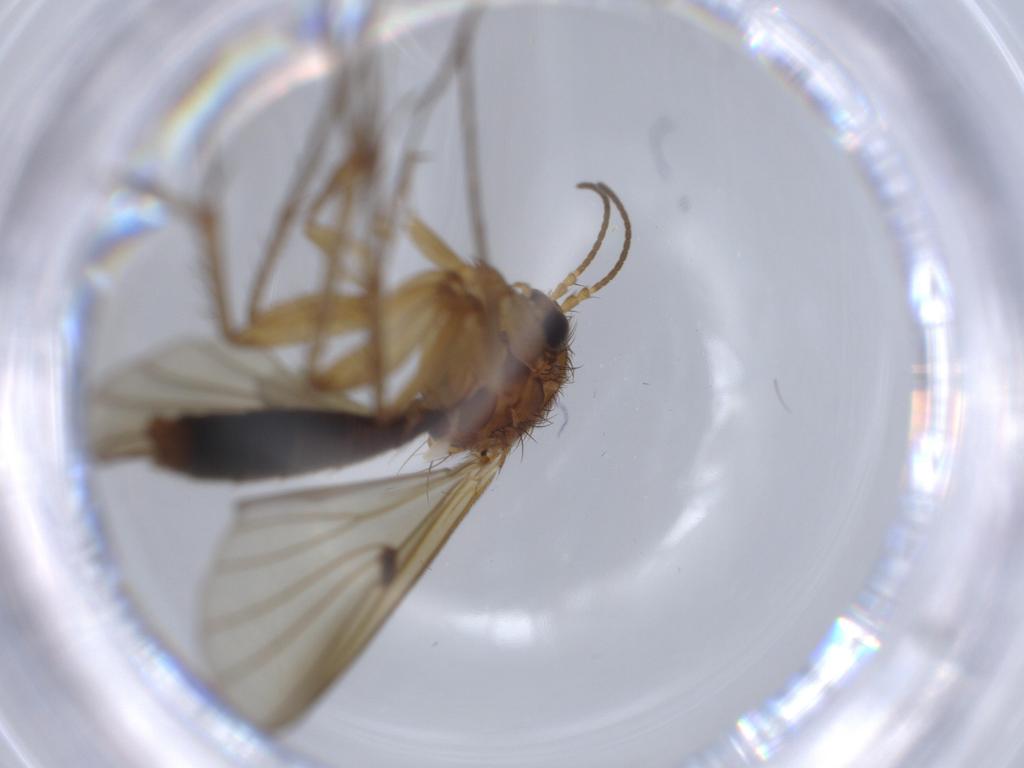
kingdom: Animalia
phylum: Arthropoda
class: Insecta
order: Diptera
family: Mycetophilidae
